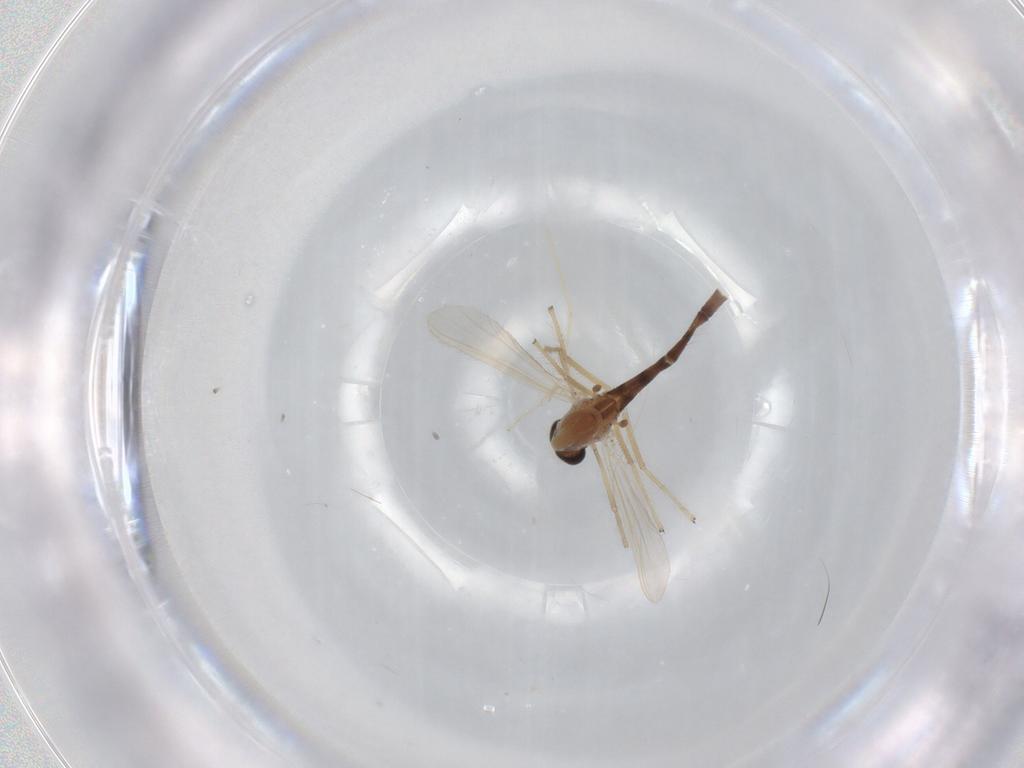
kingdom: Animalia
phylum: Arthropoda
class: Insecta
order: Diptera
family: Chironomidae
